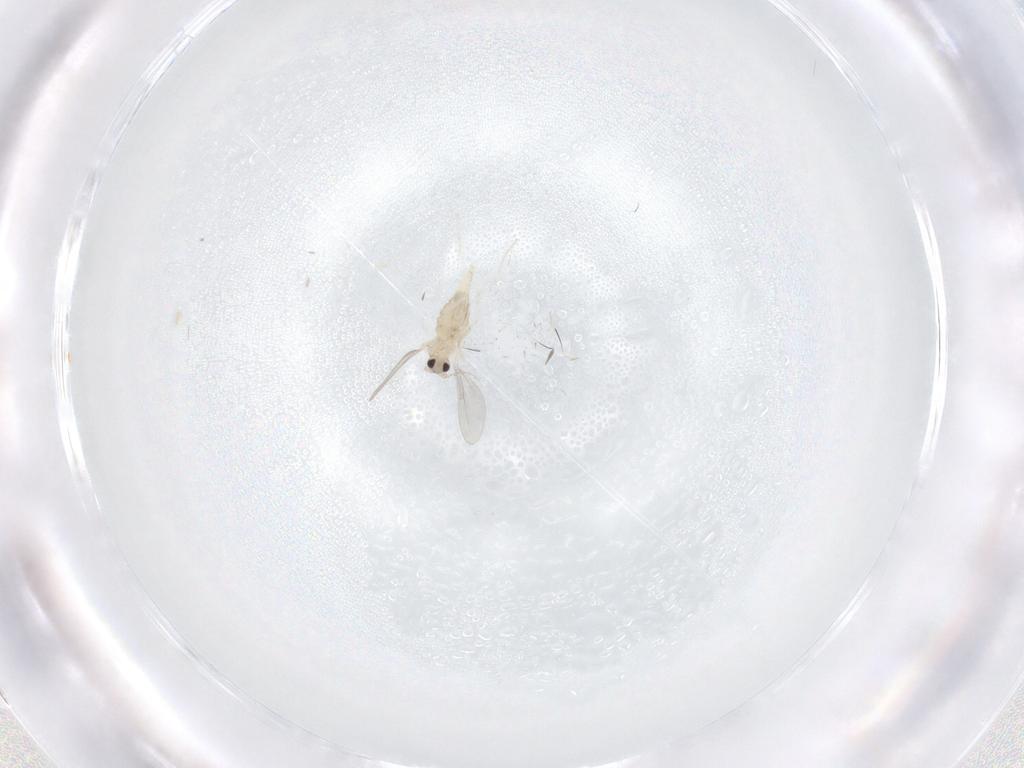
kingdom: Animalia
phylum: Arthropoda
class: Insecta
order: Diptera
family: Cecidomyiidae
